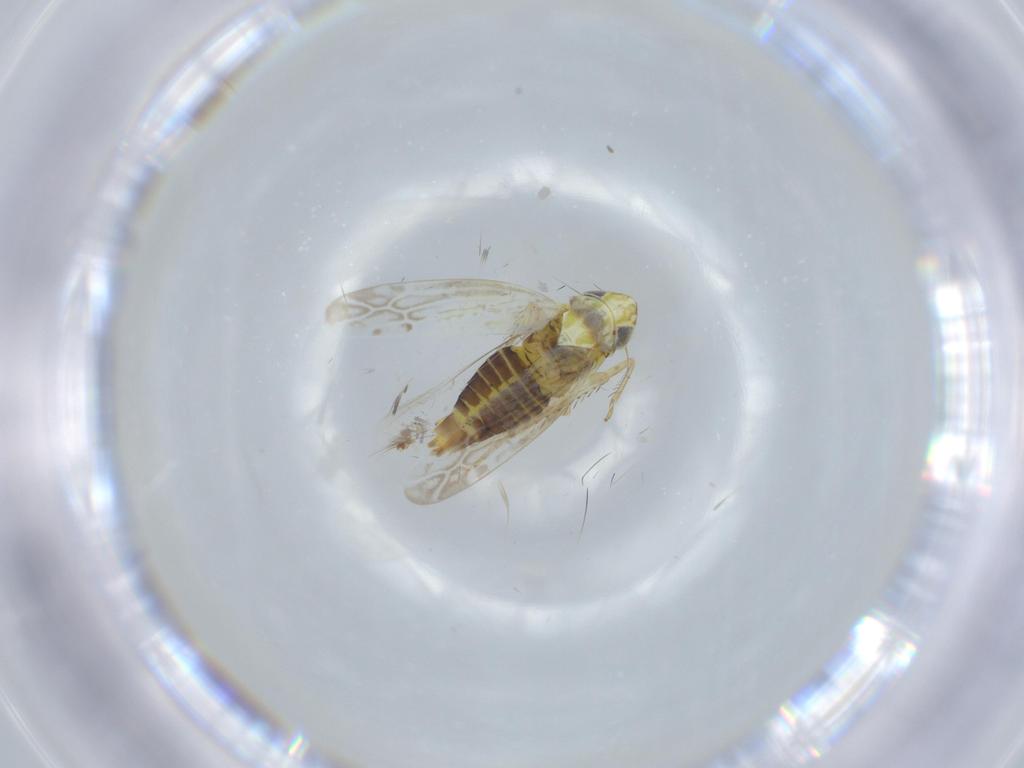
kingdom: Animalia
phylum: Arthropoda
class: Insecta
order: Hemiptera
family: Cicadellidae
